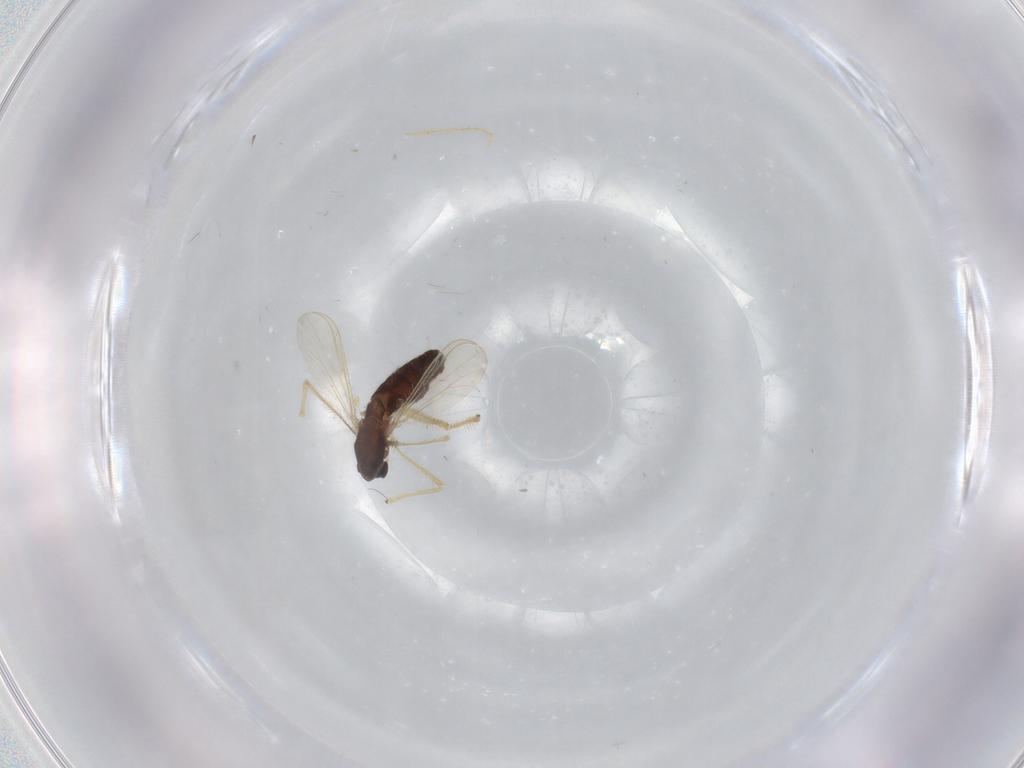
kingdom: Animalia
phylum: Arthropoda
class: Insecta
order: Diptera
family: Chironomidae
